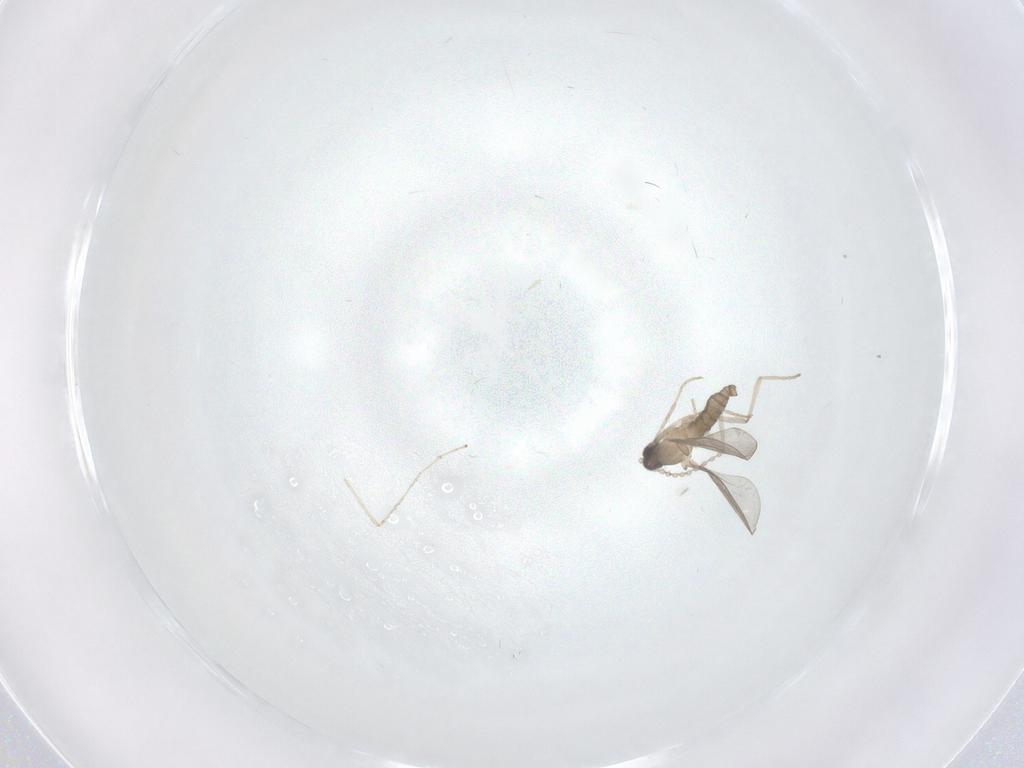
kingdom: Animalia
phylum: Arthropoda
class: Insecta
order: Diptera
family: Cecidomyiidae
